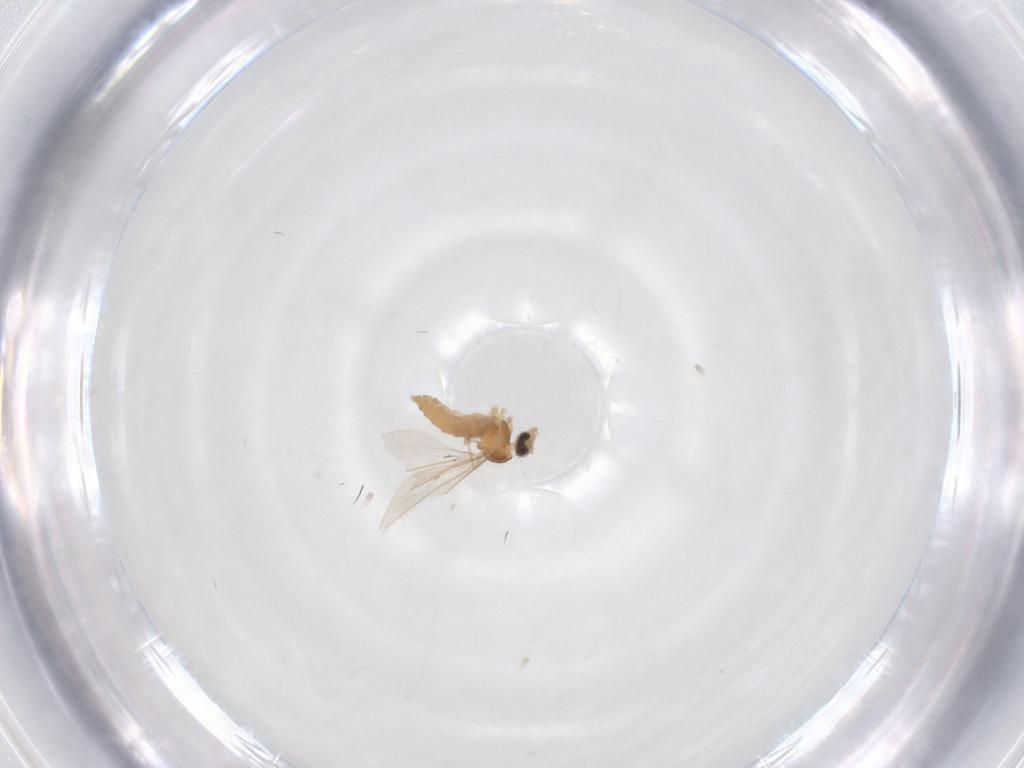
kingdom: Animalia
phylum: Arthropoda
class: Insecta
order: Diptera
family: Cecidomyiidae
